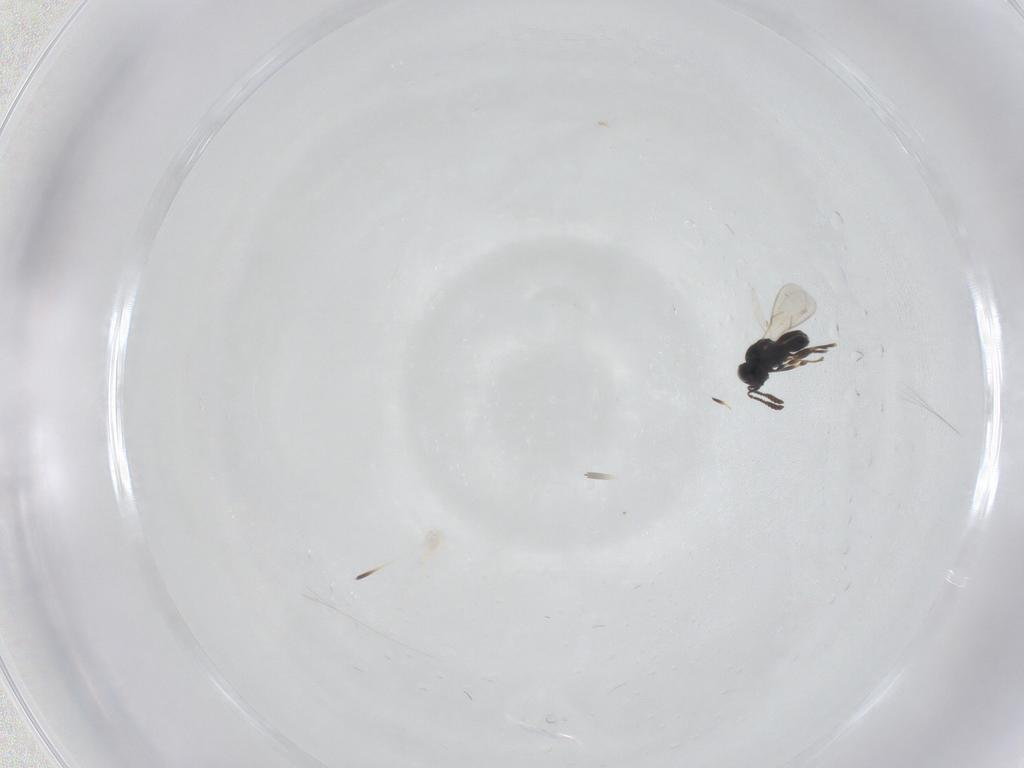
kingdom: Animalia
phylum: Arthropoda
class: Insecta
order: Hymenoptera
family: Scelionidae
